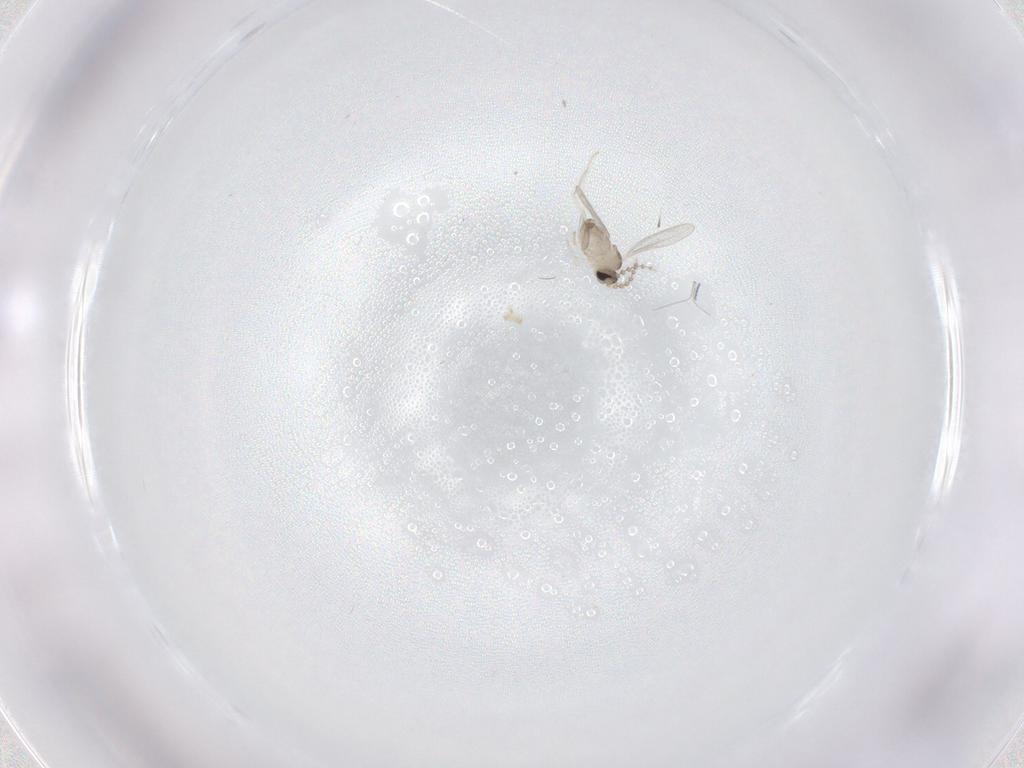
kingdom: Animalia
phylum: Arthropoda
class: Insecta
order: Diptera
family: Cecidomyiidae
